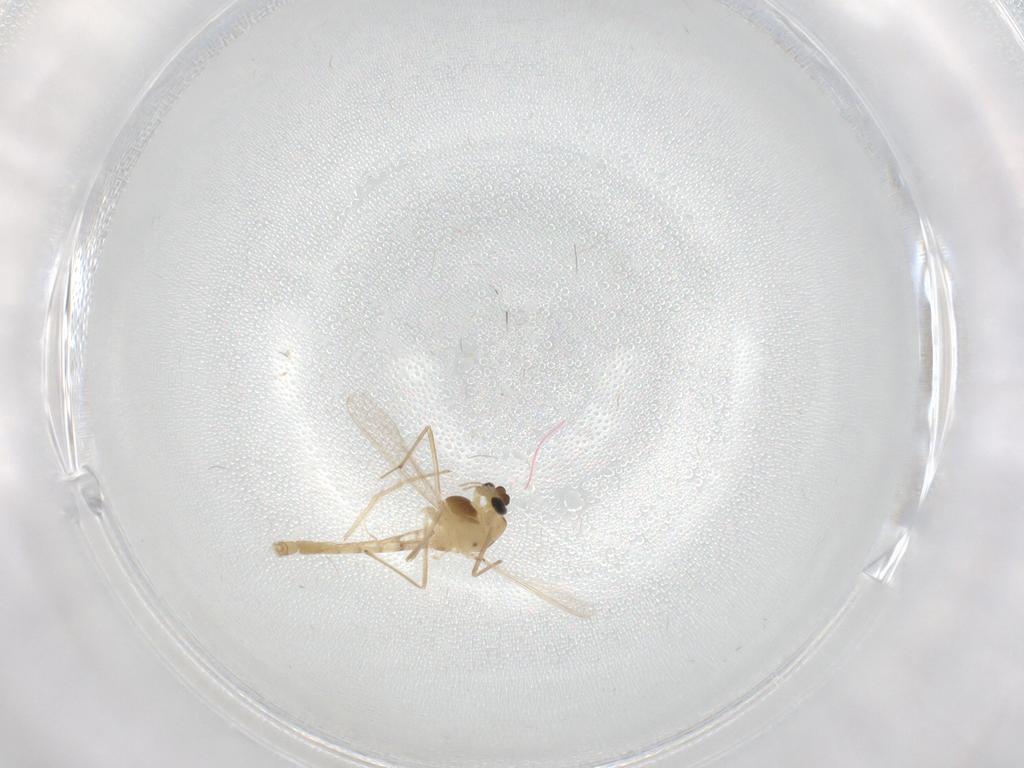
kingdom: Animalia
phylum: Arthropoda
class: Insecta
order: Diptera
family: Chironomidae
